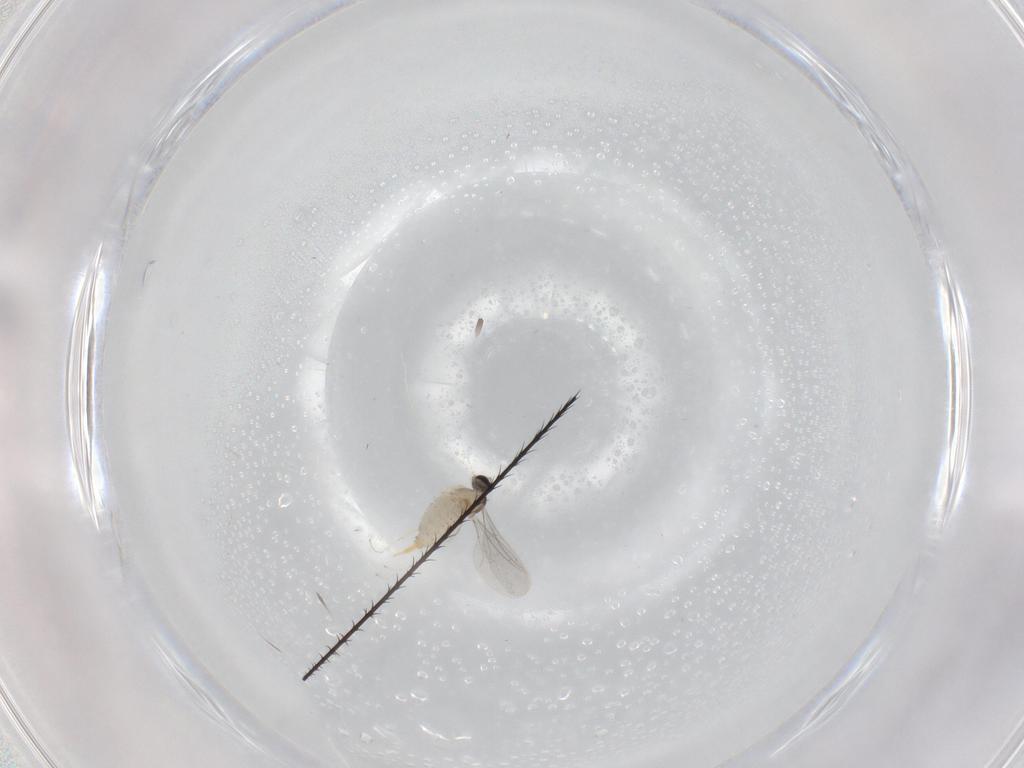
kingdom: Animalia
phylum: Arthropoda
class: Insecta
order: Diptera
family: Cecidomyiidae
